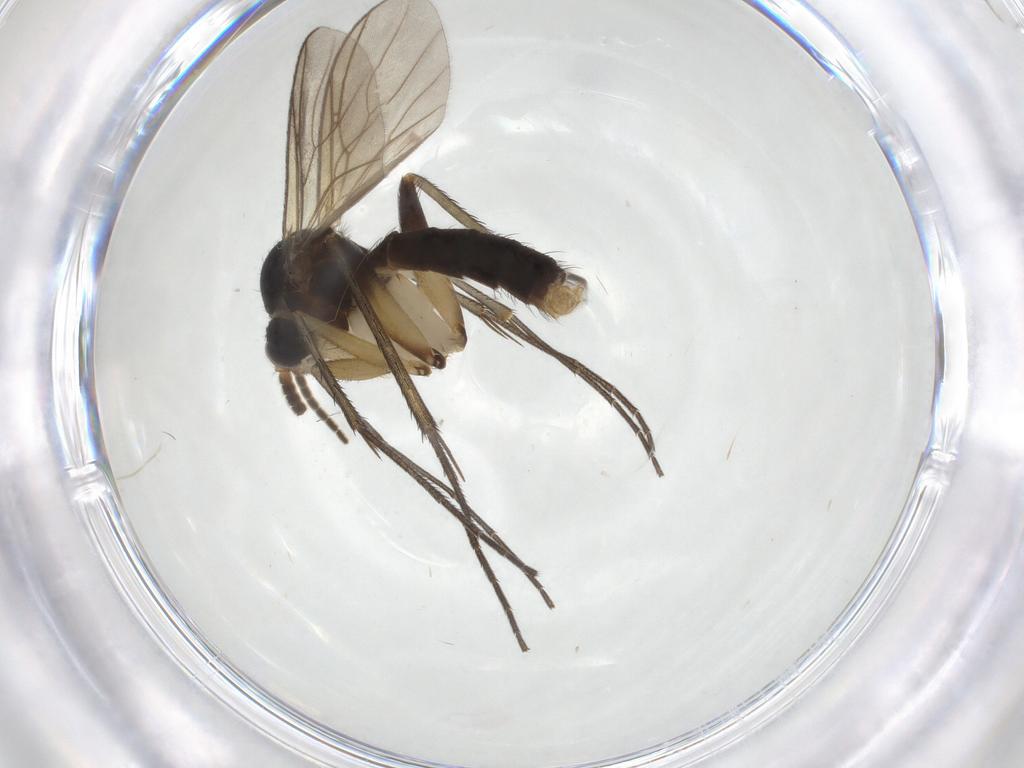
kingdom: Animalia
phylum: Arthropoda
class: Insecta
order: Diptera
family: Mycetophilidae
